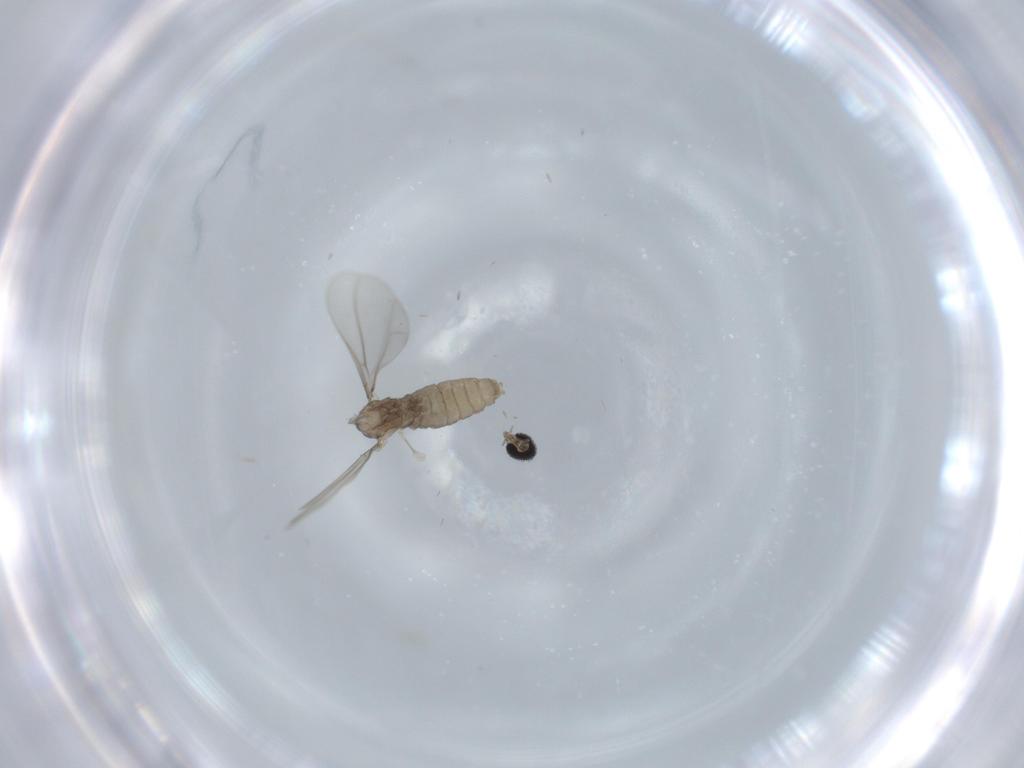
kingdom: Animalia
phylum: Arthropoda
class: Insecta
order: Diptera
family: Cecidomyiidae
